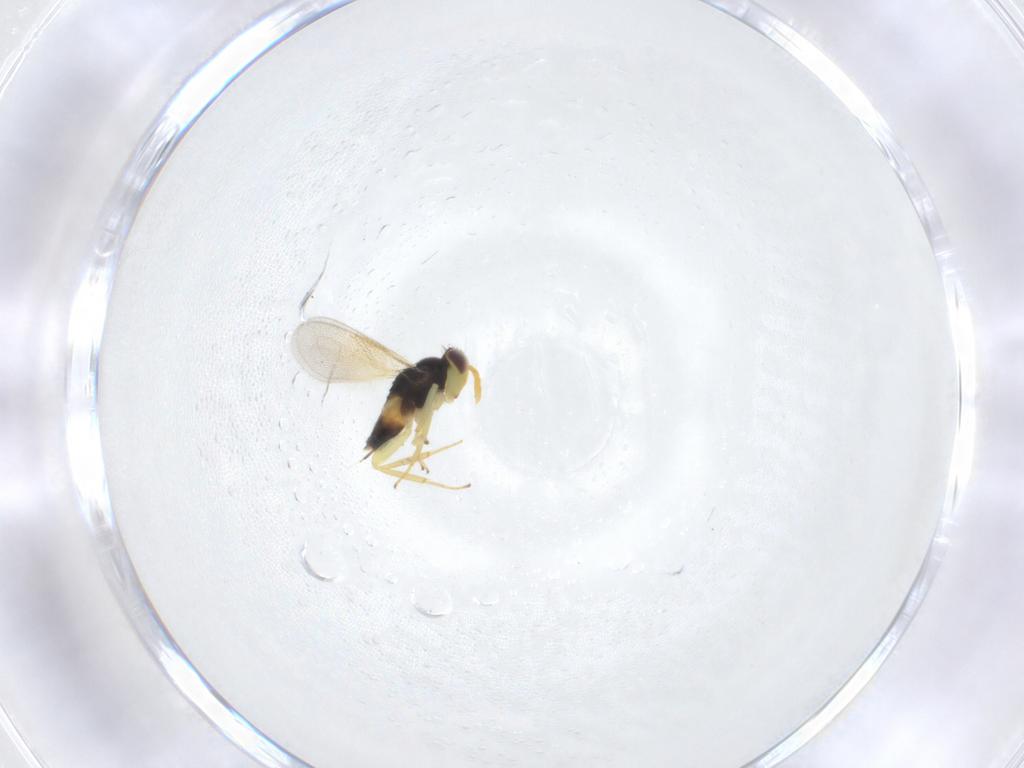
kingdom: Animalia
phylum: Arthropoda
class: Insecta
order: Hymenoptera
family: Aphelinidae
